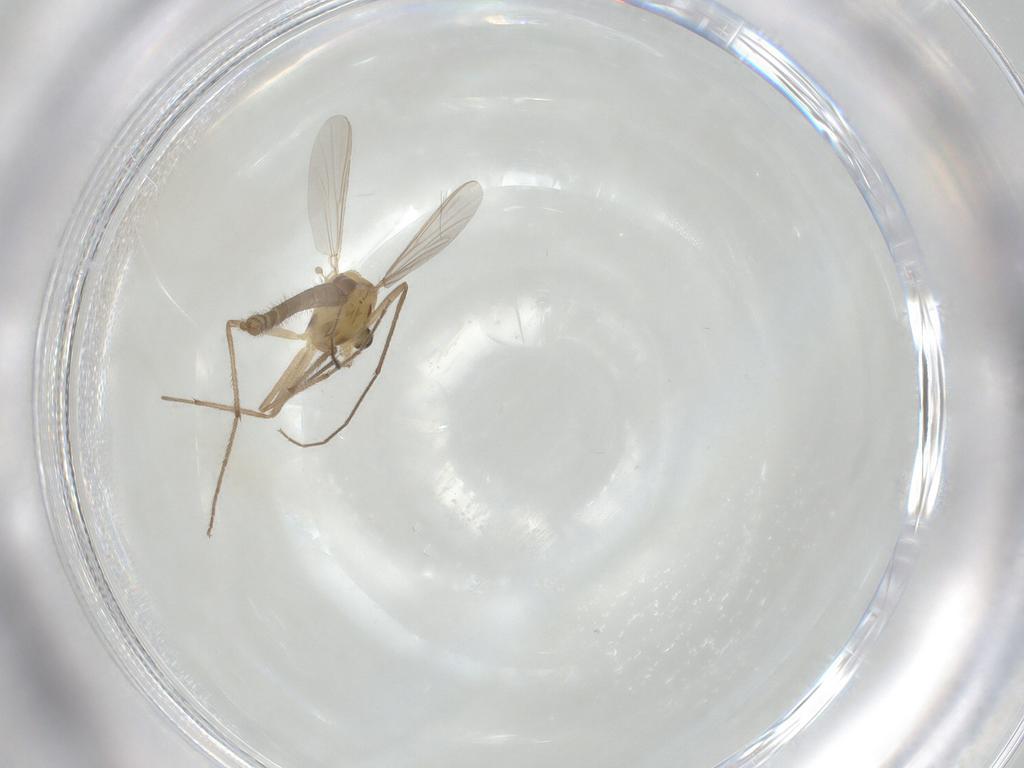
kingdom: Animalia
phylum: Arthropoda
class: Insecta
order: Diptera
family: Chironomidae
